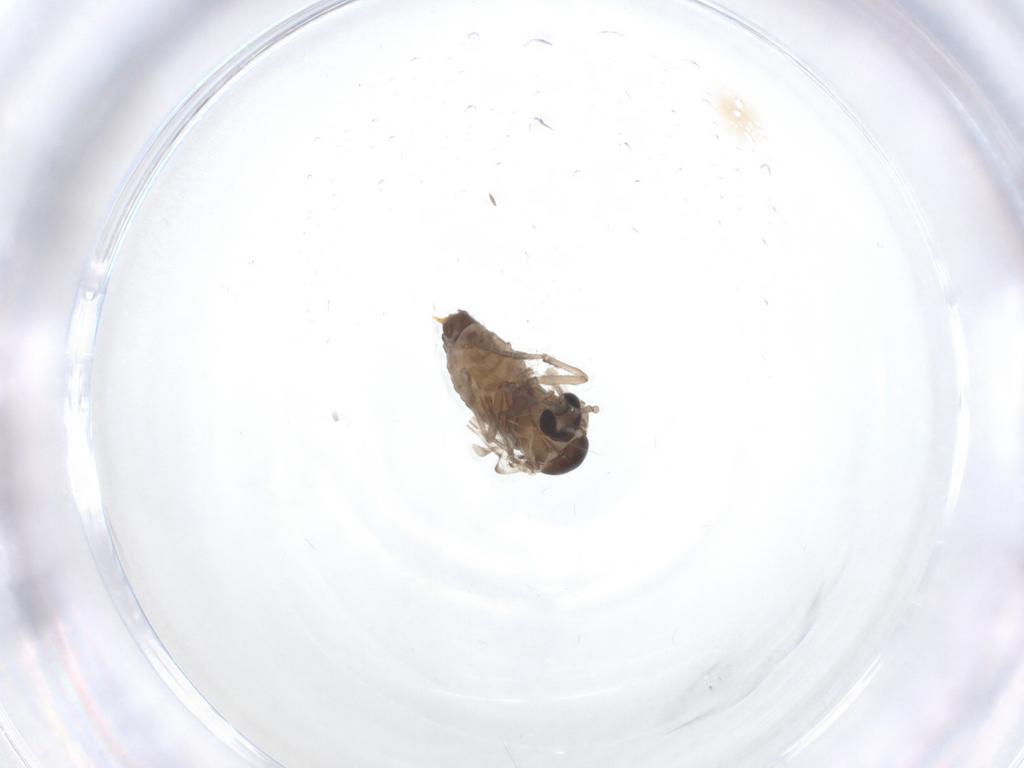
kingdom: Animalia
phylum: Arthropoda
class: Insecta
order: Diptera
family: Psychodidae
